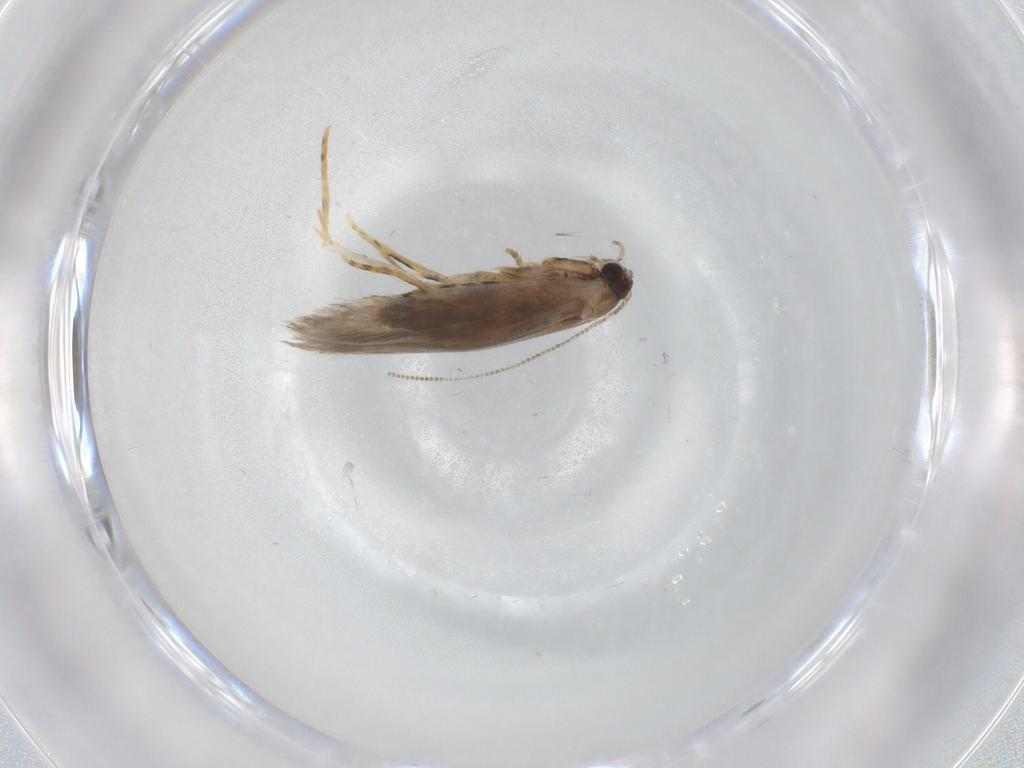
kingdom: Animalia
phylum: Arthropoda
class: Insecta
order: Lepidoptera
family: Tineidae
